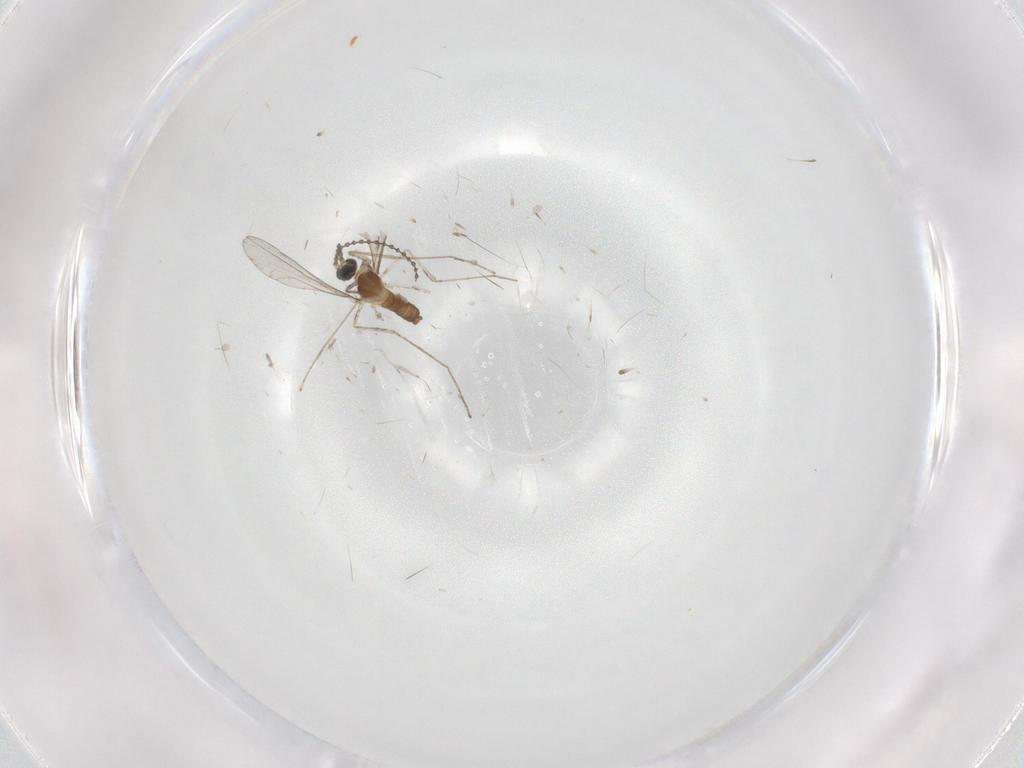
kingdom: Animalia
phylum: Arthropoda
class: Insecta
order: Diptera
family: Cecidomyiidae
